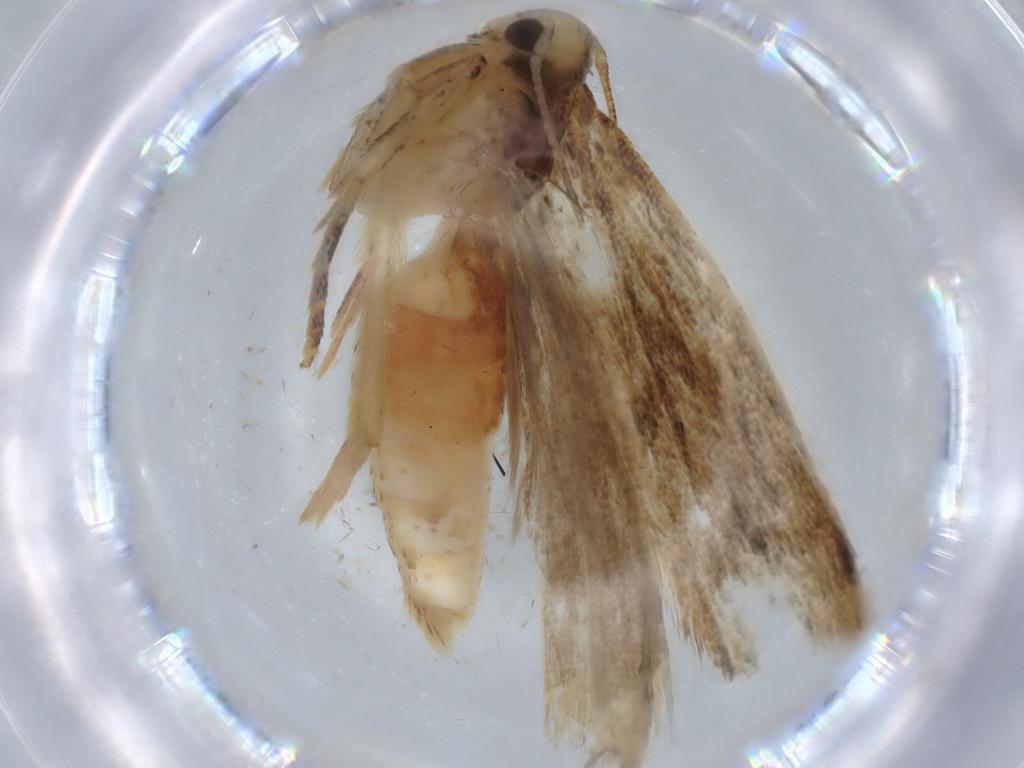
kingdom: Animalia
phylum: Arthropoda
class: Insecta
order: Lepidoptera
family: Gelechiidae
